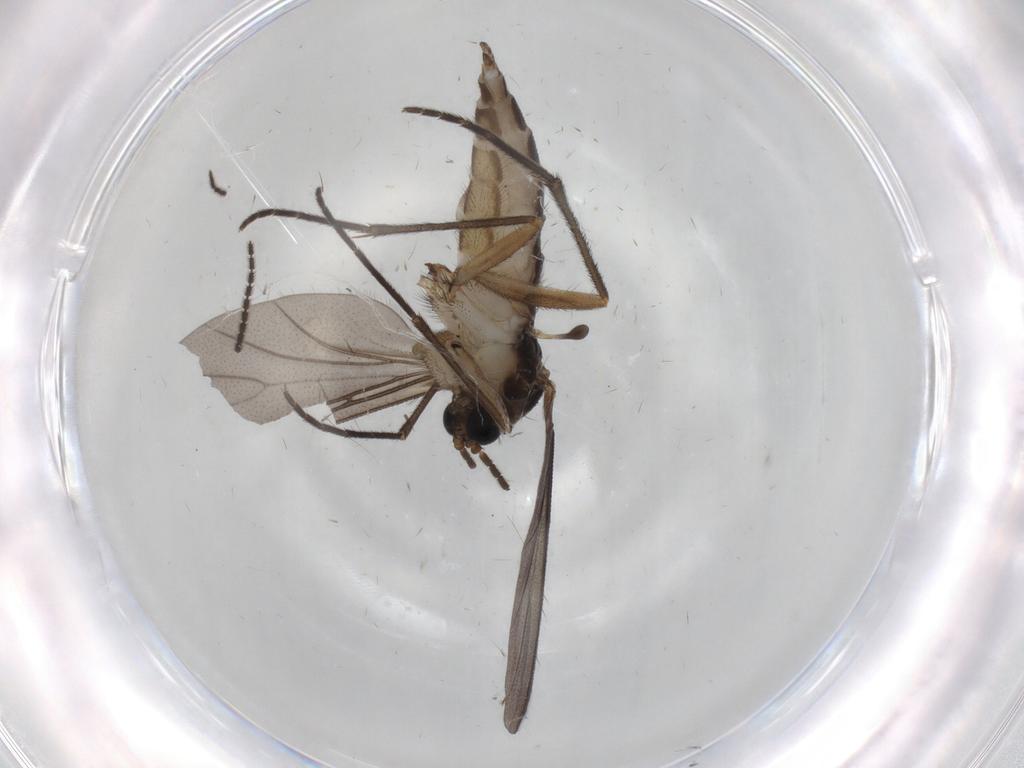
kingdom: Animalia
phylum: Arthropoda
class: Insecta
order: Diptera
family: Sciaridae
